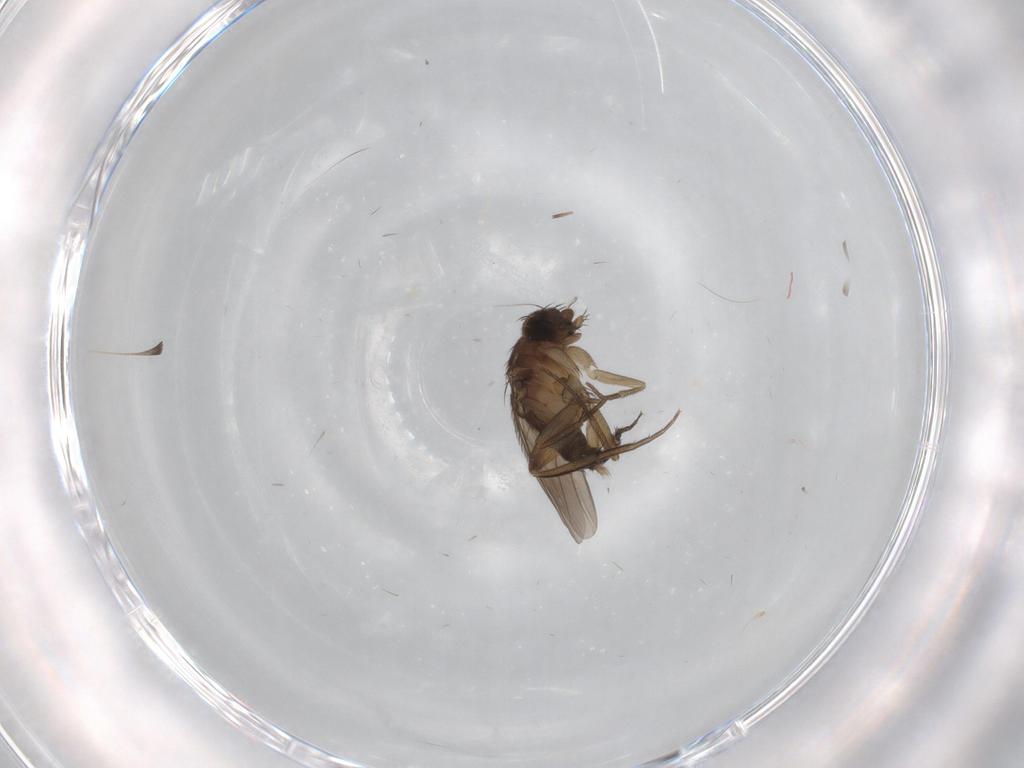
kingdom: Animalia
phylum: Arthropoda
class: Insecta
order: Diptera
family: Phoridae
